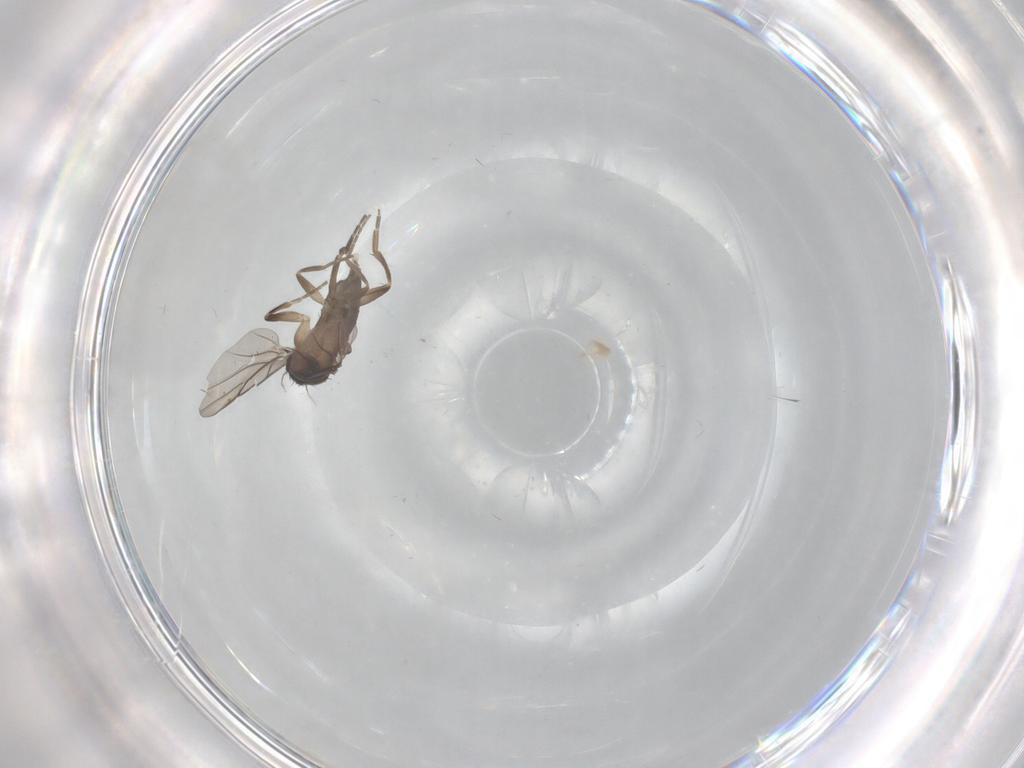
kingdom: Animalia
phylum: Arthropoda
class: Insecta
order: Diptera
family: Phoridae
